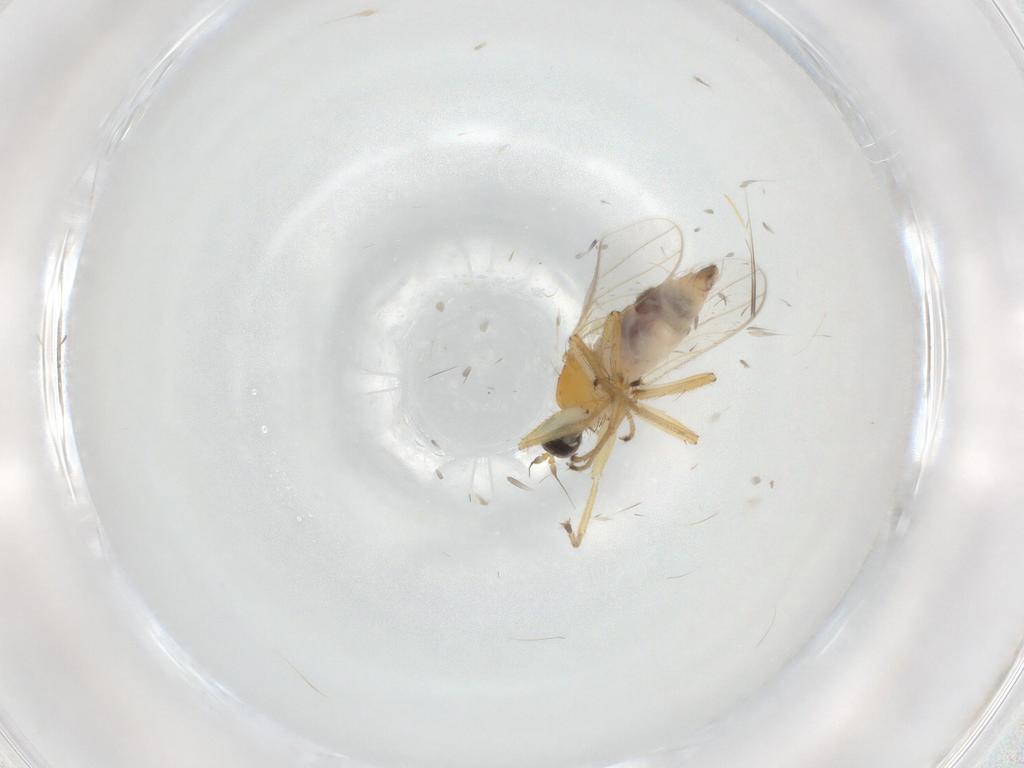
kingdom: Animalia
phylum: Arthropoda
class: Insecta
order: Diptera
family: Hybotidae
